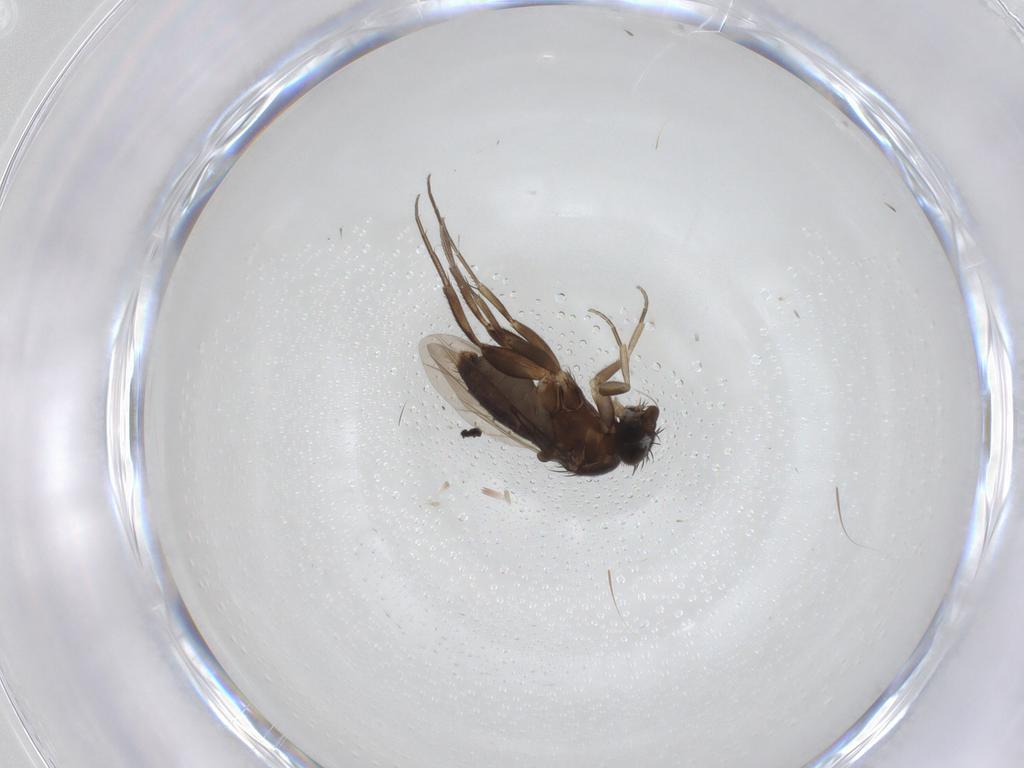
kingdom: Animalia
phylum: Arthropoda
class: Insecta
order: Diptera
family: Phoridae
